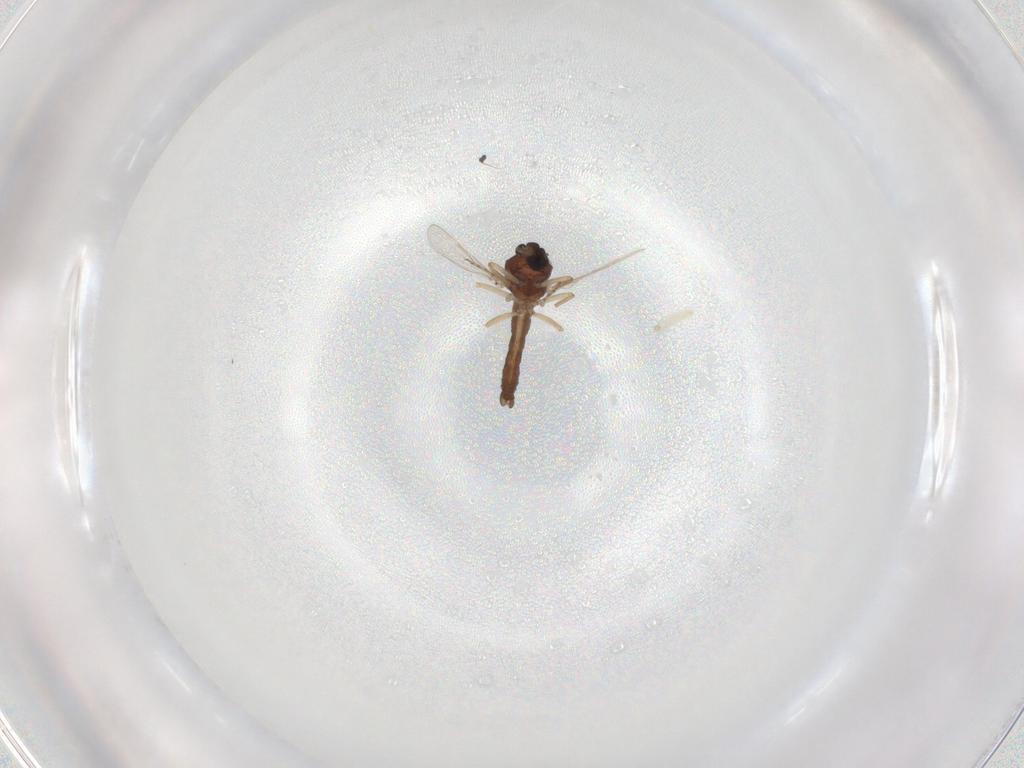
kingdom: Animalia
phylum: Arthropoda
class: Insecta
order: Diptera
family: Ceratopogonidae
